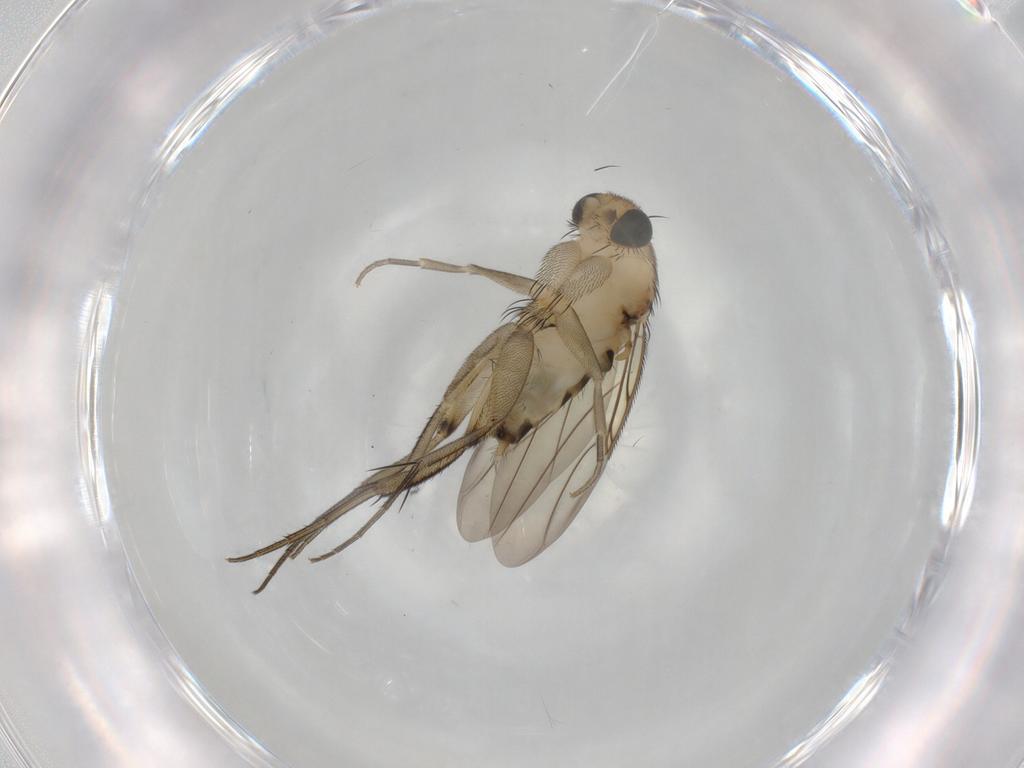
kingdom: Animalia
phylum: Arthropoda
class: Insecta
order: Diptera
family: Phoridae
